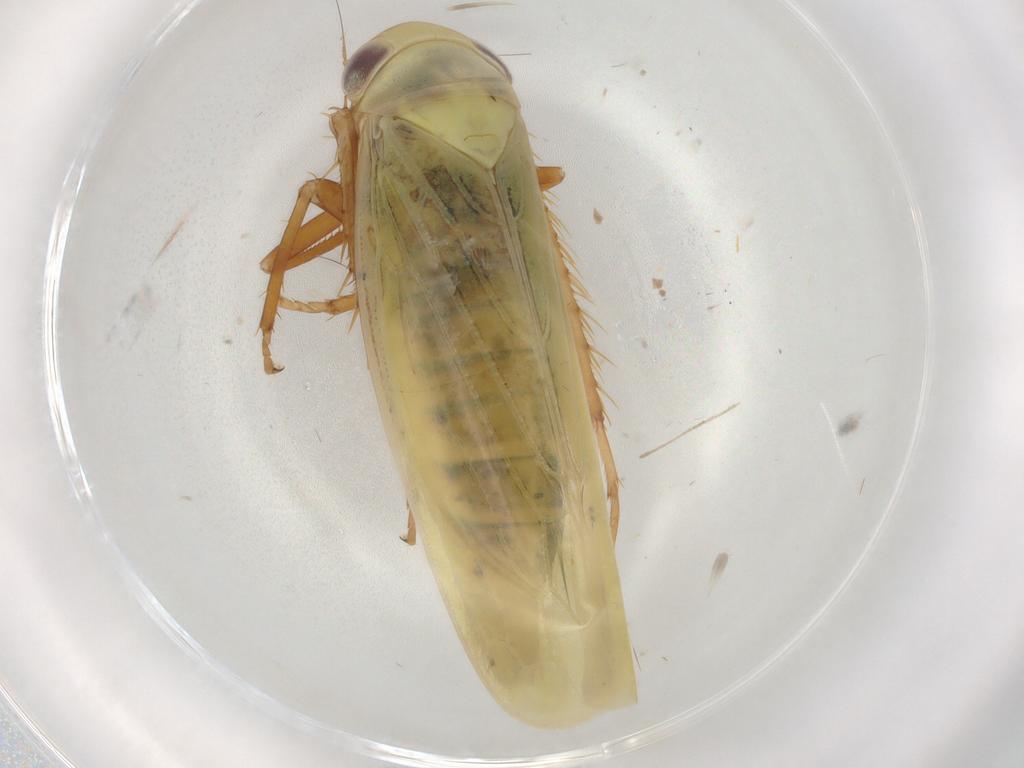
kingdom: Animalia
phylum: Arthropoda
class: Insecta
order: Hemiptera
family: Cicadellidae
